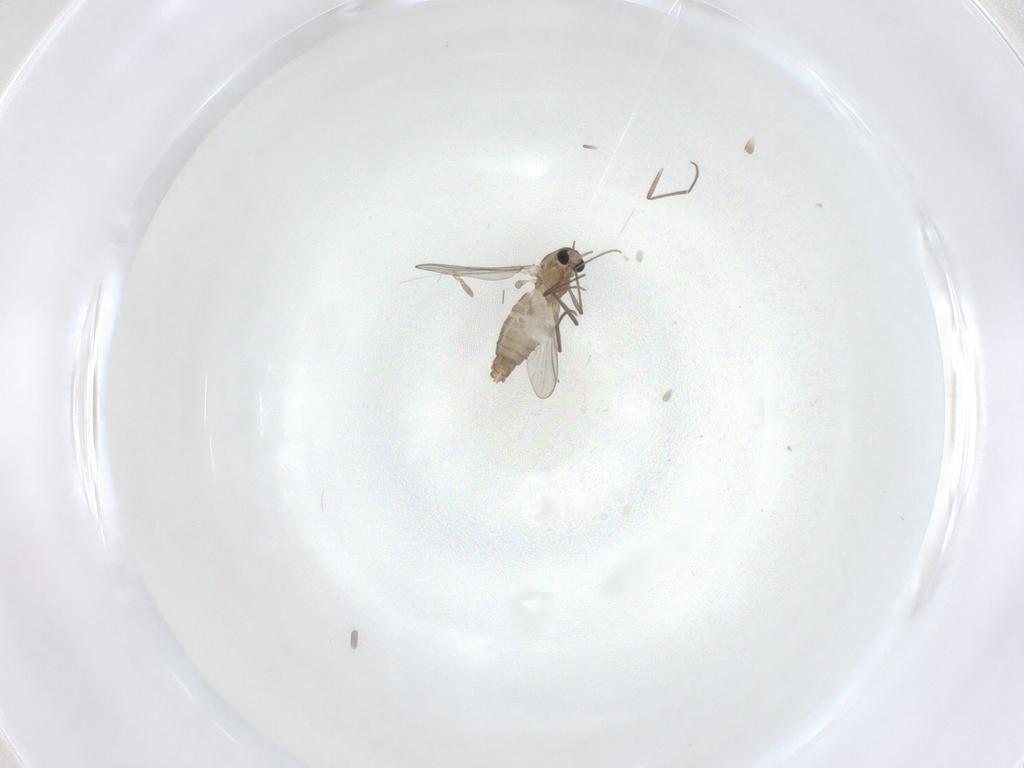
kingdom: Animalia
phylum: Arthropoda
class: Insecta
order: Diptera
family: Chironomidae
